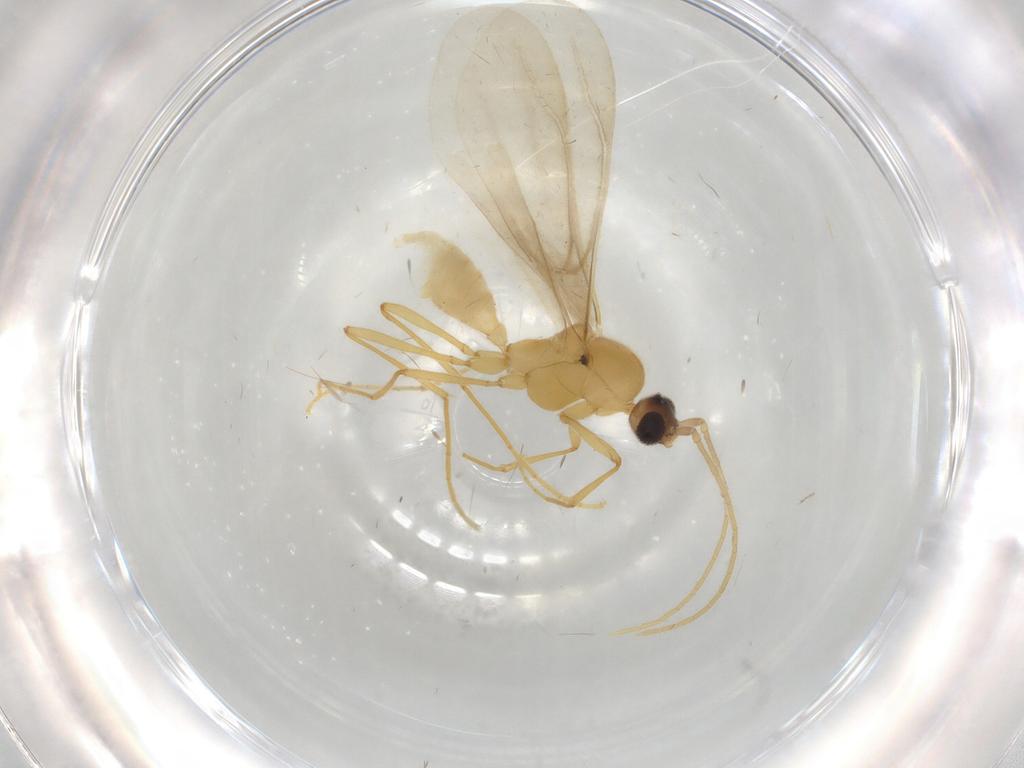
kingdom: Animalia
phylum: Arthropoda
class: Insecta
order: Hymenoptera
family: Formicidae
